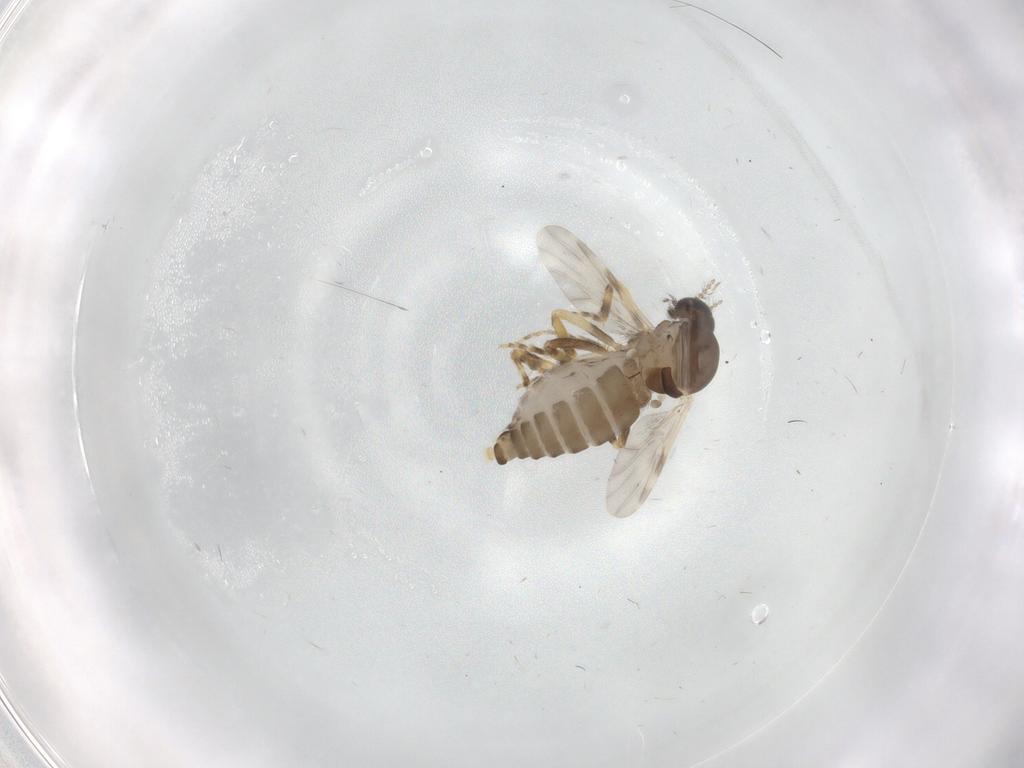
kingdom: Animalia
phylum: Arthropoda
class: Insecta
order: Diptera
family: Ceratopogonidae
